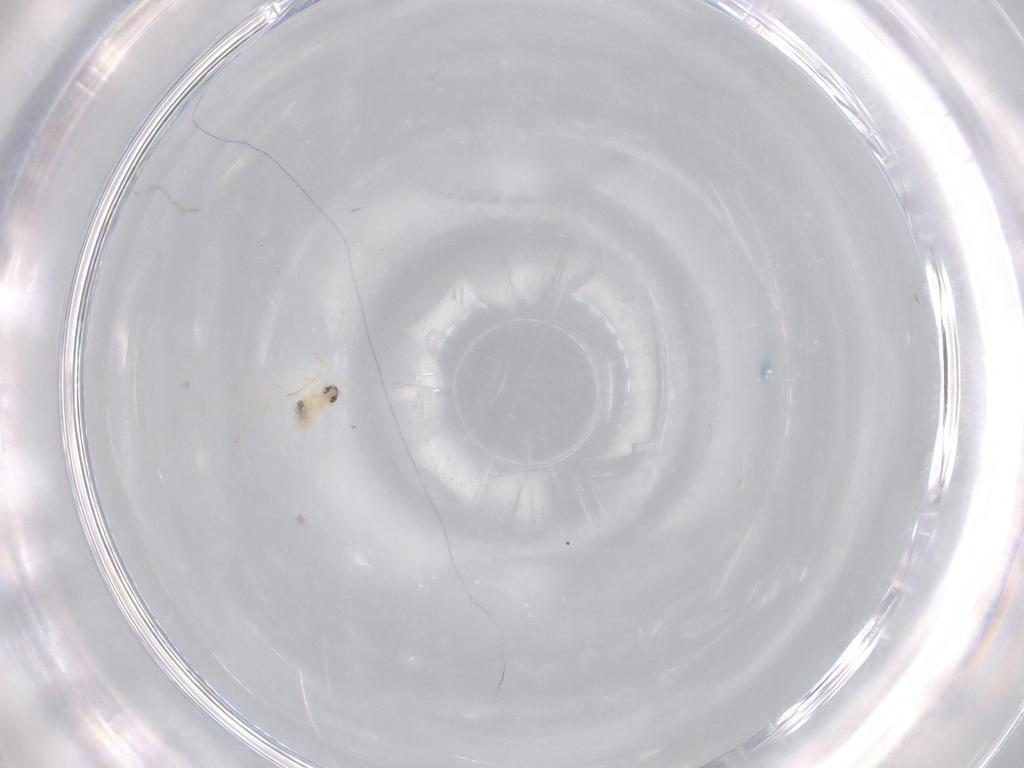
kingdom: Animalia
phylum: Arthropoda
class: Insecta
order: Diptera
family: Cecidomyiidae
